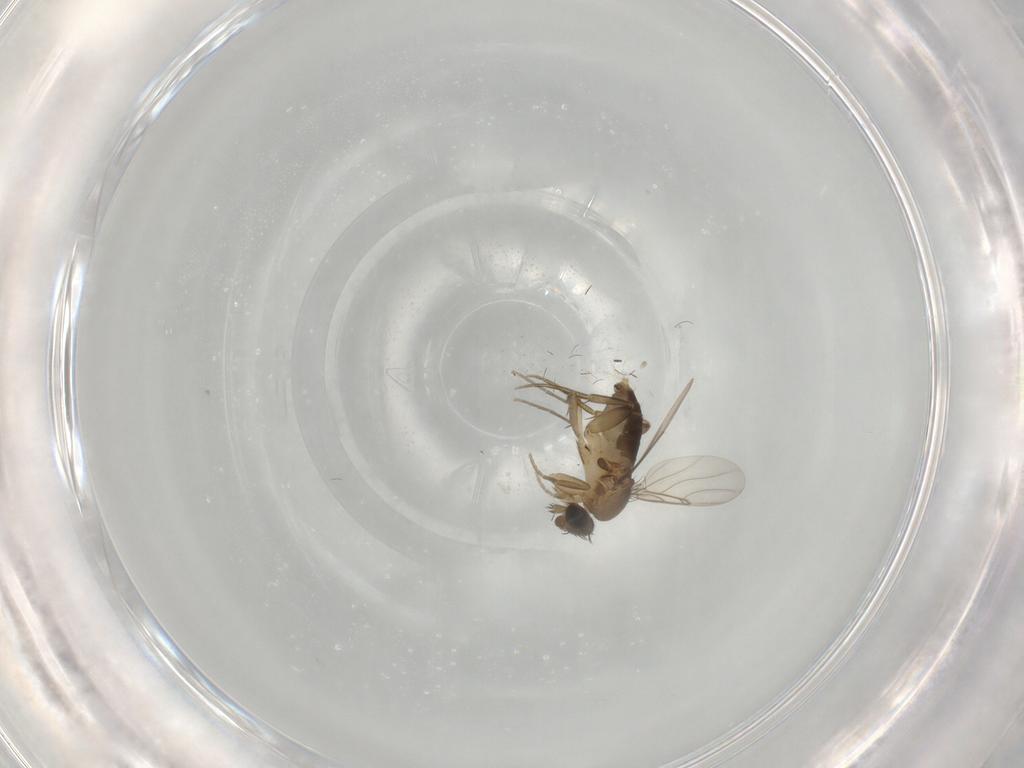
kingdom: Animalia
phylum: Arthropoda
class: Insecta
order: Diptera
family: Phoridae
